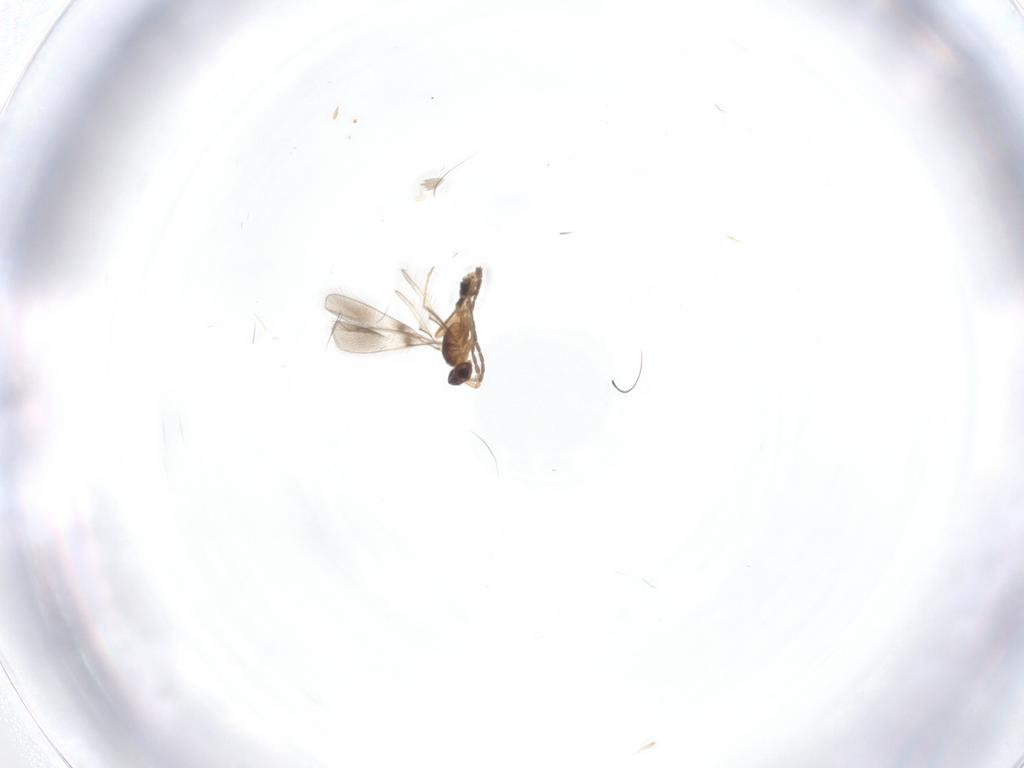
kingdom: Animalia
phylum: Arthropoda
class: Insecta
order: Hymenoptera
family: Mymaridae
